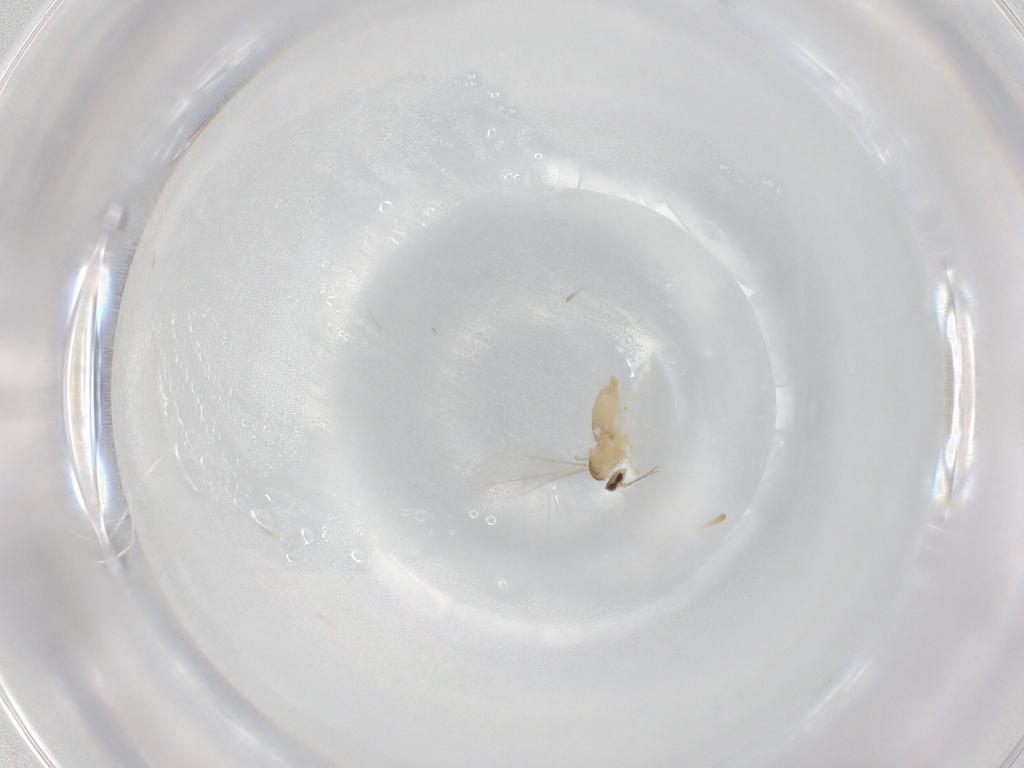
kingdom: Animalia
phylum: Arthropoda
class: Insecta
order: Diptera
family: Cecidomyiidae
